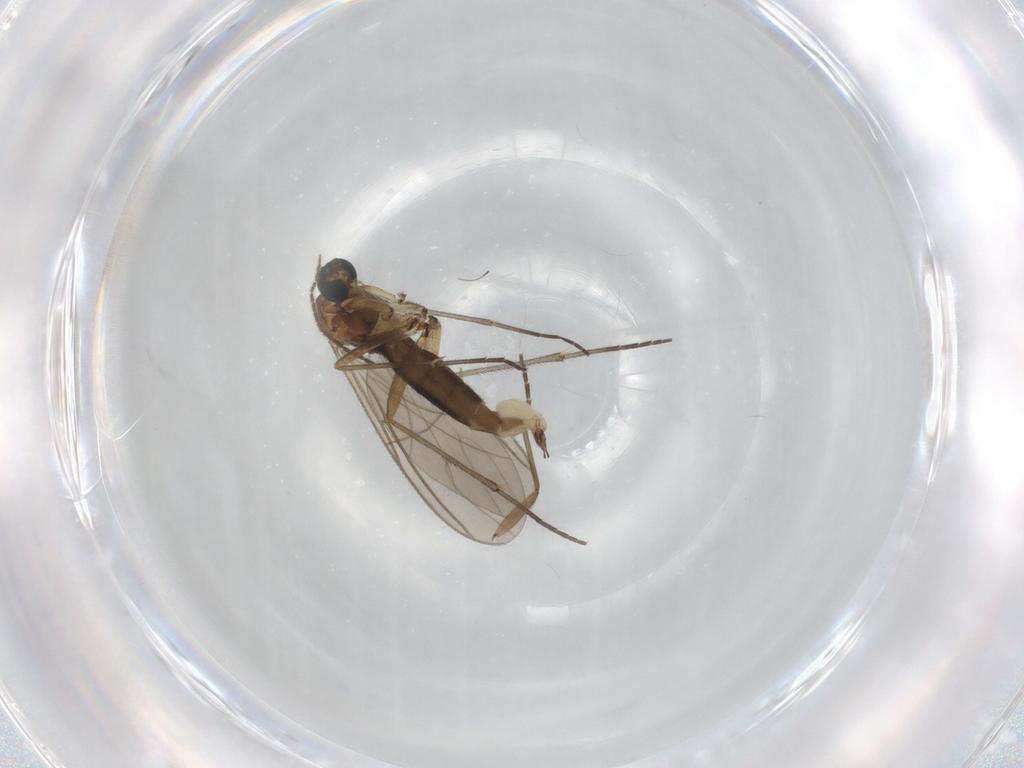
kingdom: Animalia
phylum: Arthropoda
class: Insecta
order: Diptera
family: Sciaridae
